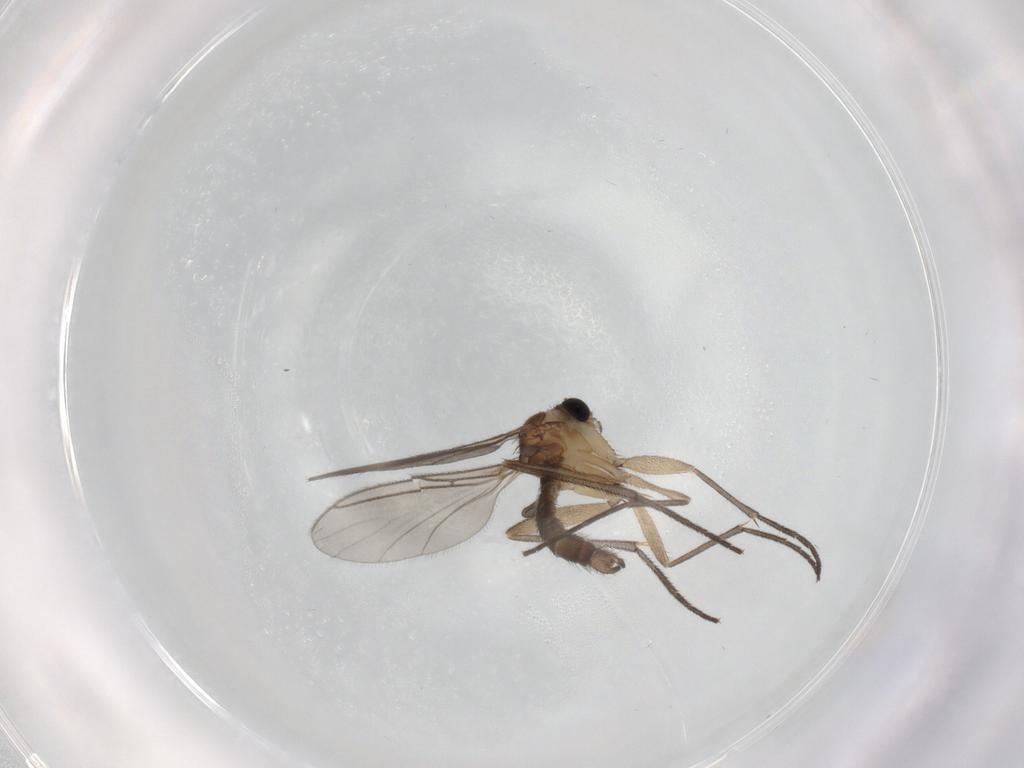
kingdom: Animalia
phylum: Arthropoda
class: Insecta
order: Diptera
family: Sciaridae
